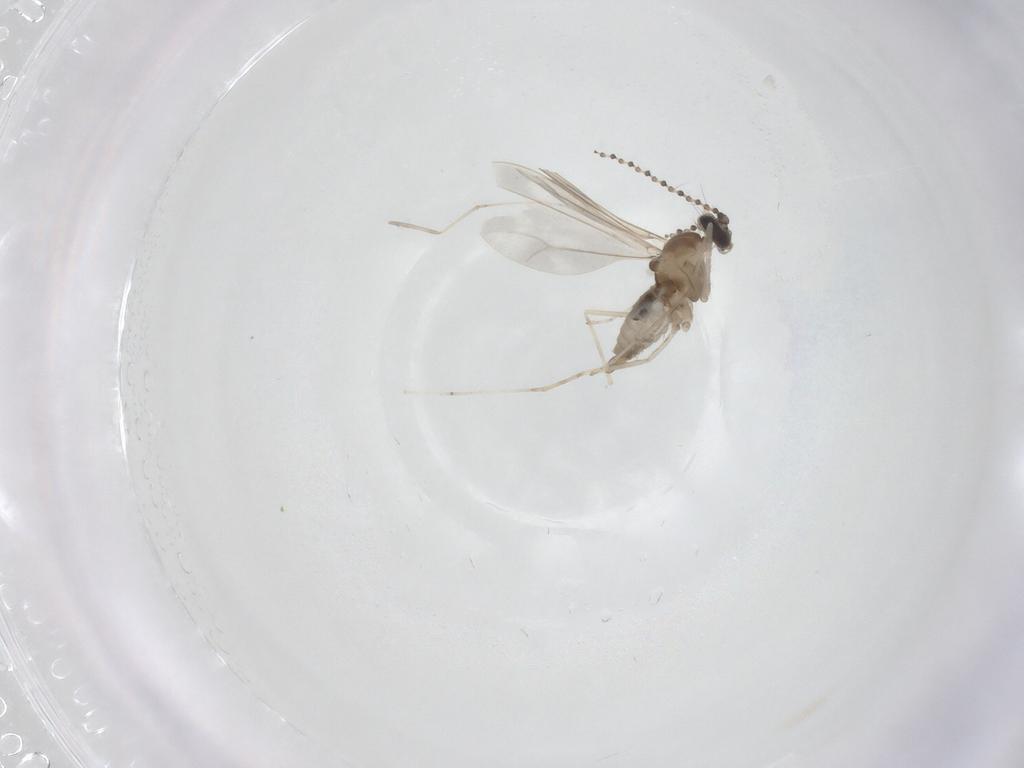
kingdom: Animalia
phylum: Arthropoda
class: Insecta
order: Diptera
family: Cecidomyiidae
